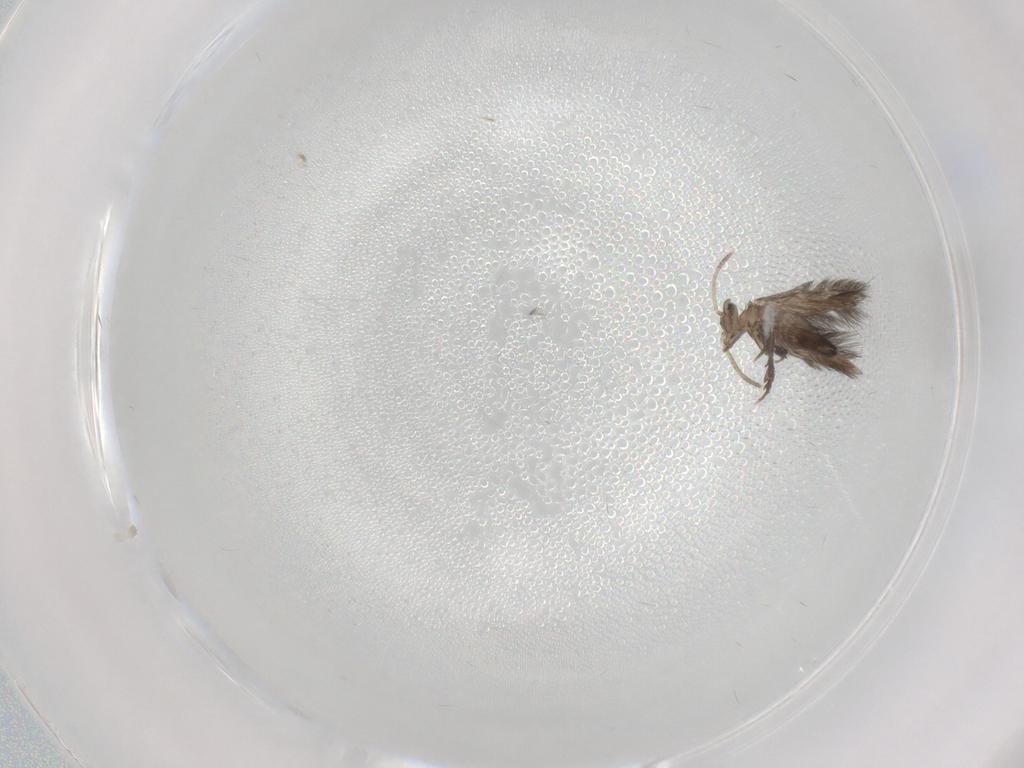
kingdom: Animalia
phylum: Arthropoda
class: Insecta
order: Trichoptera
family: Hydroptilidae
